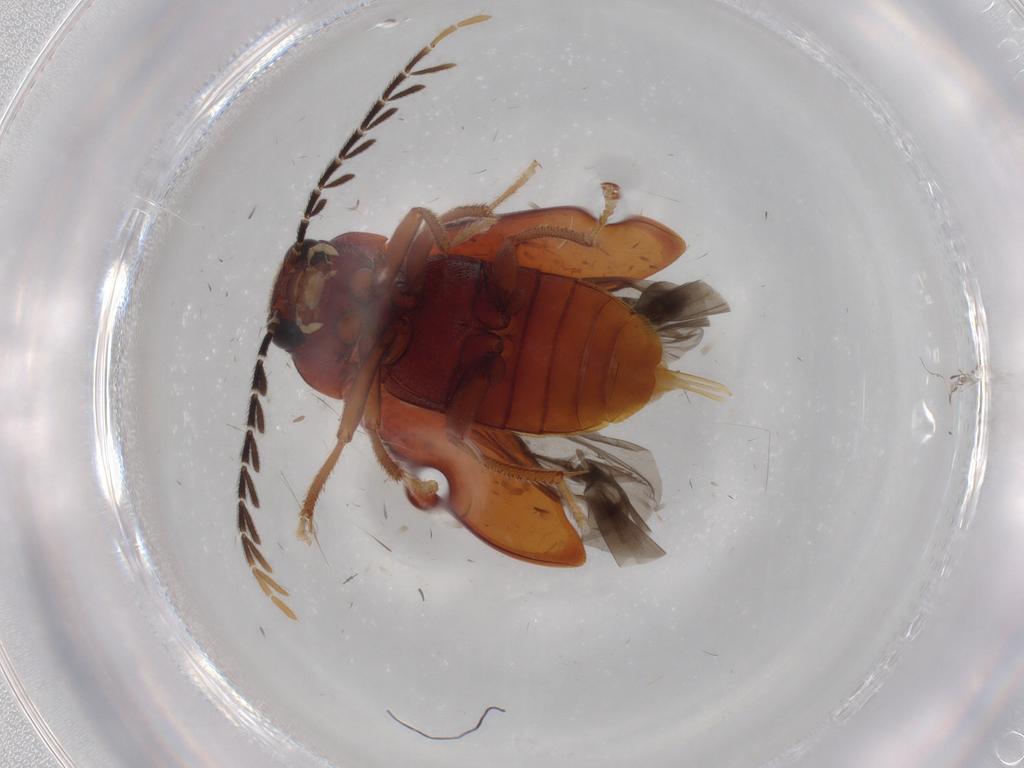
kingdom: Animalia
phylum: Arthropoda
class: Insecta
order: Coleoptera
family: Ptilodactylidae
